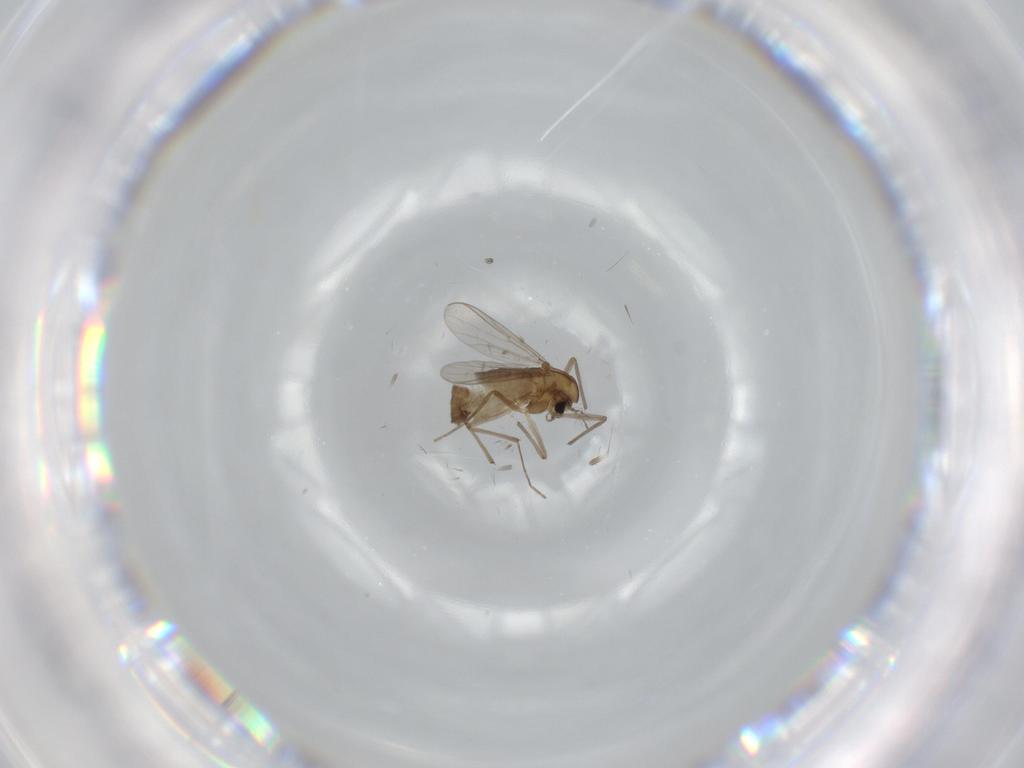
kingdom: Animalia
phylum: Arthropoda
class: Insecta
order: Diptera
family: Chironomidae
